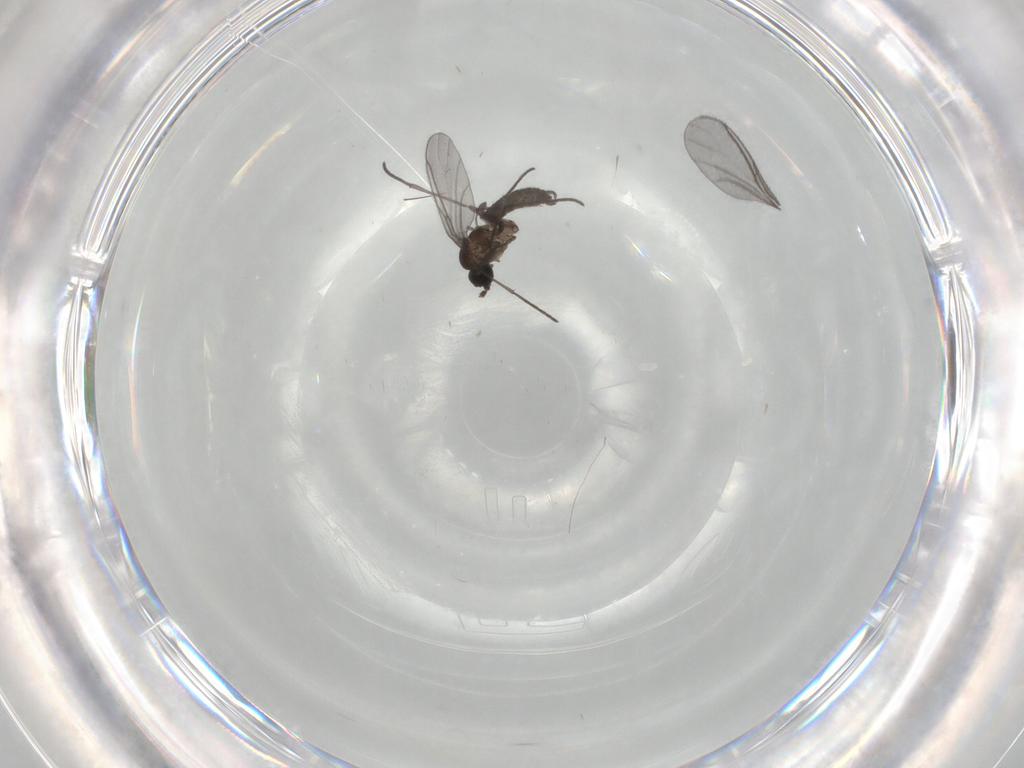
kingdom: Animalia
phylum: Arthropoda
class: Insecta
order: Diptera
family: Cecidomyiidae
